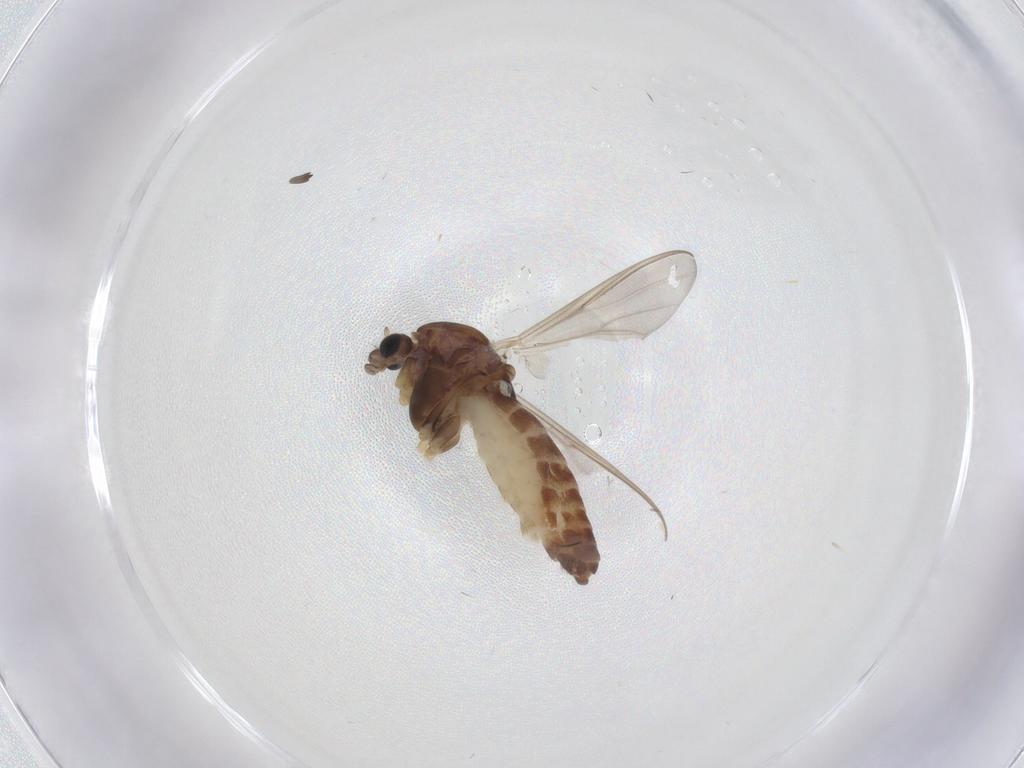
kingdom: Animalia
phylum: Arthropoda
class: Insecta
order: Diptera
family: Chironomidae
